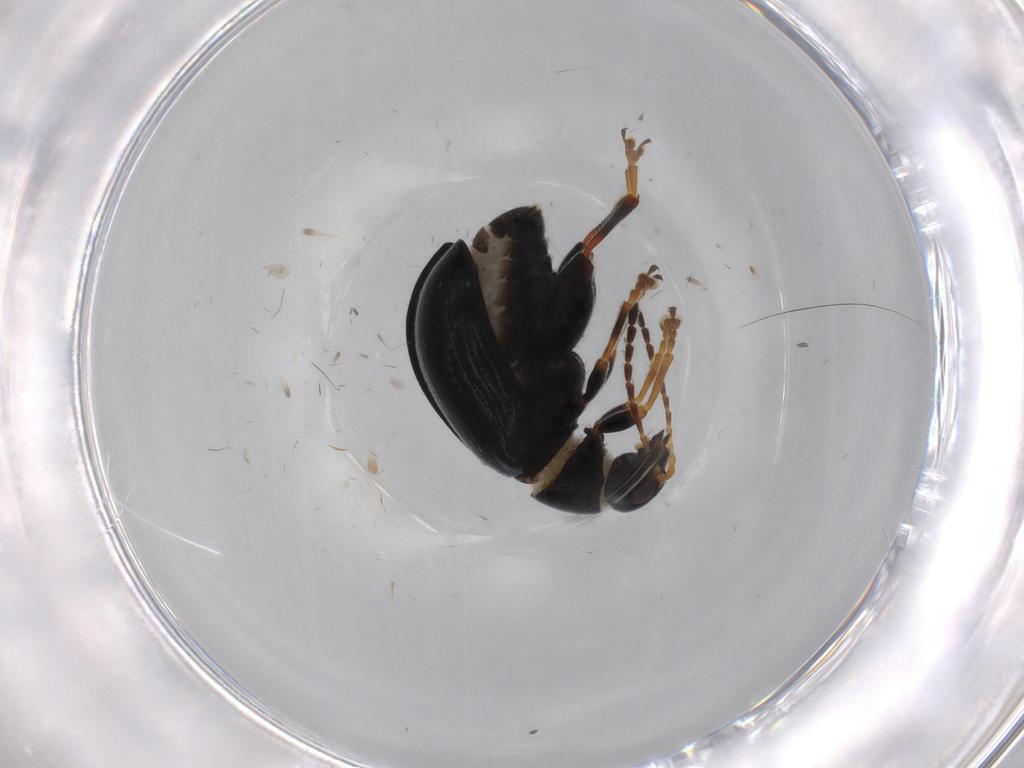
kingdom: Animalia
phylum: Arthropoda
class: Insecta
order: Coleoptera
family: Chrysomelidae
